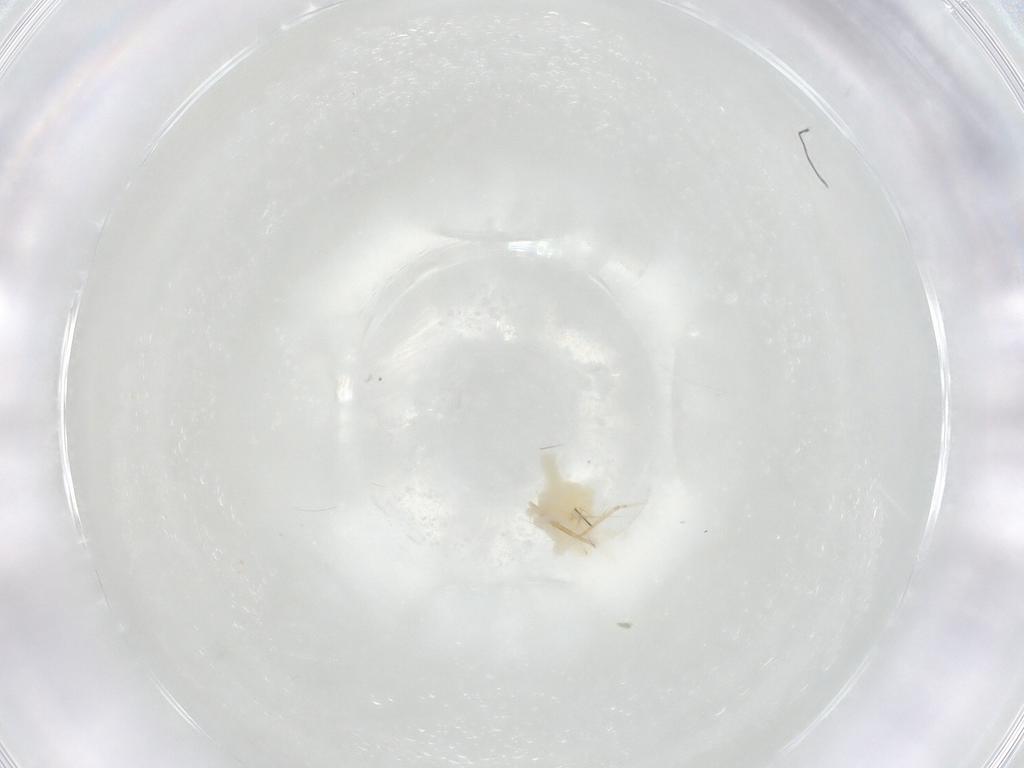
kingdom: Animalia
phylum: Arthropoda
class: Arachnida
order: Trombidiformes
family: Anystidae
